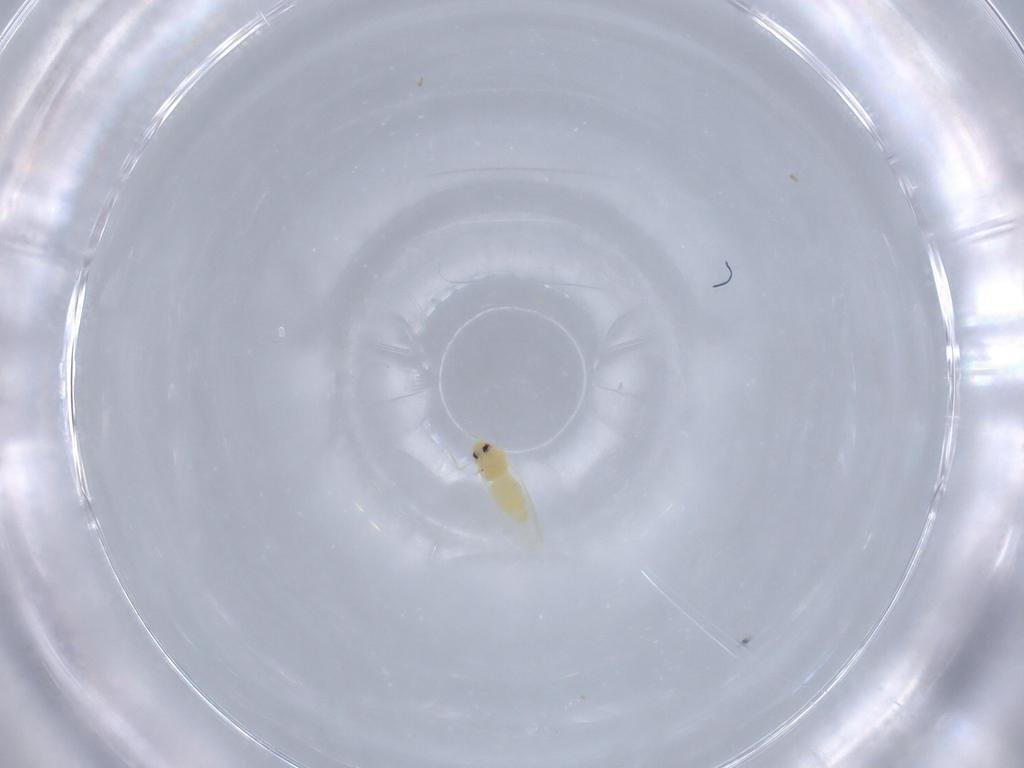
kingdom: Animalia
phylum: Arthropoda
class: Insecta
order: Hemiptera
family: Aleyrodidae
